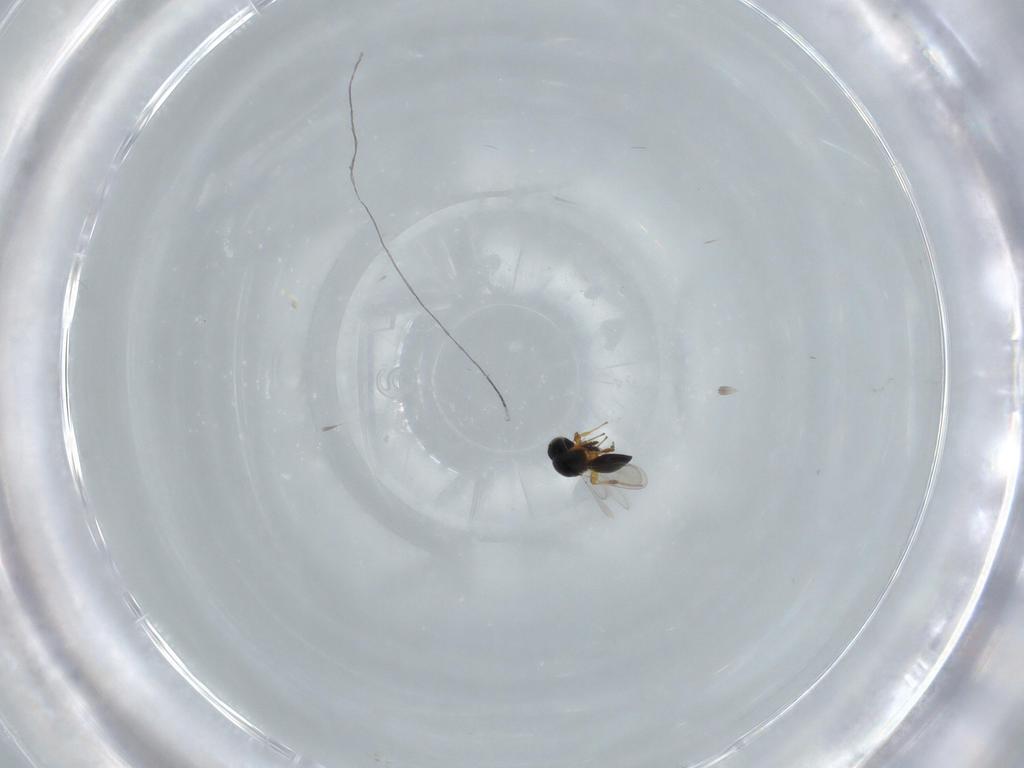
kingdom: Animalia
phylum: Arthropoda
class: Insecta
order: Hymenoptera
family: Platygastridae
